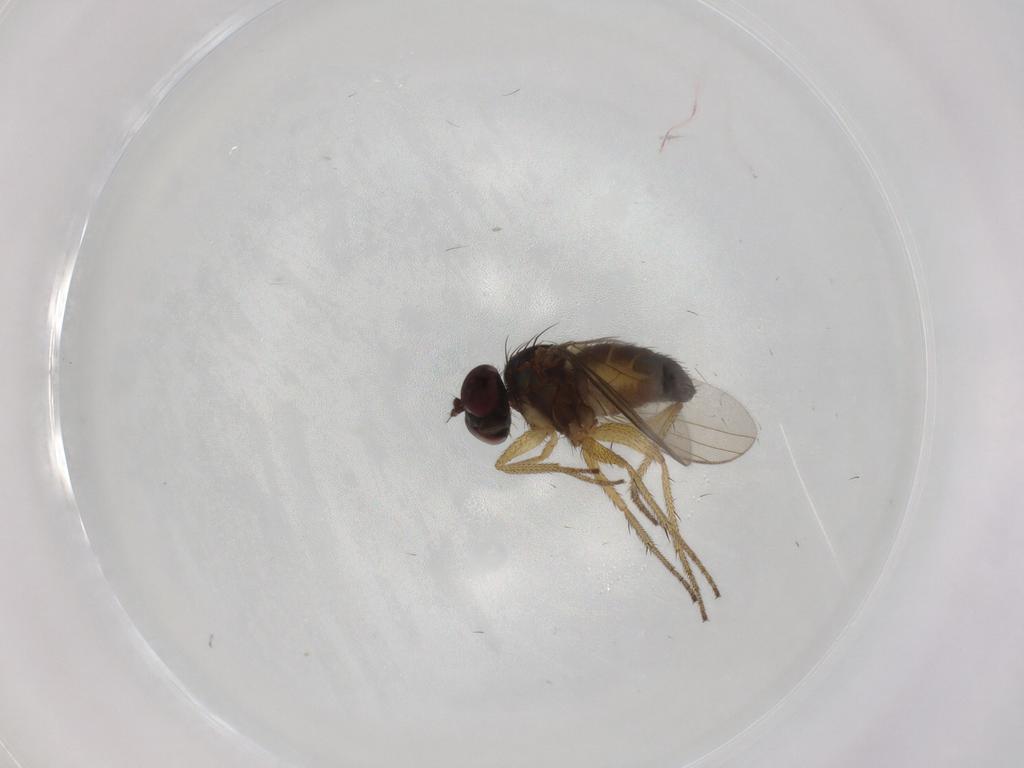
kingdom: Animalia
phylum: Arthropoda
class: Insecta
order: Diptera
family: Dolichopodidae
